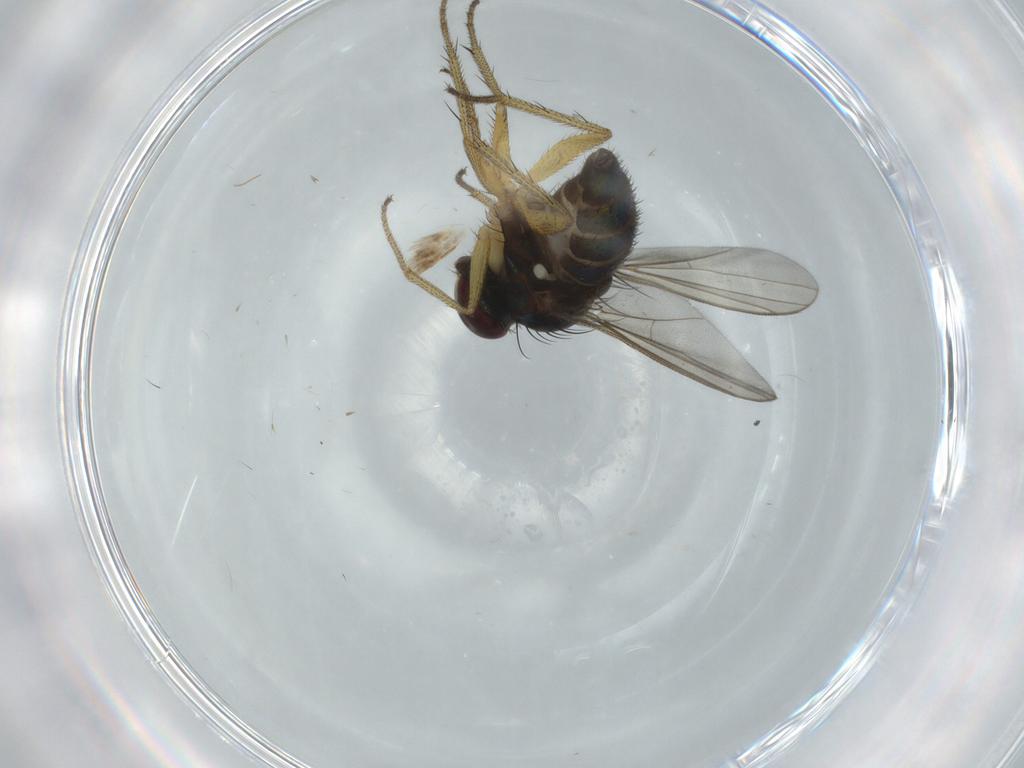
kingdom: Animalia
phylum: Arthropoda
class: Insecta
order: Diptera
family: Dolichopodidae
